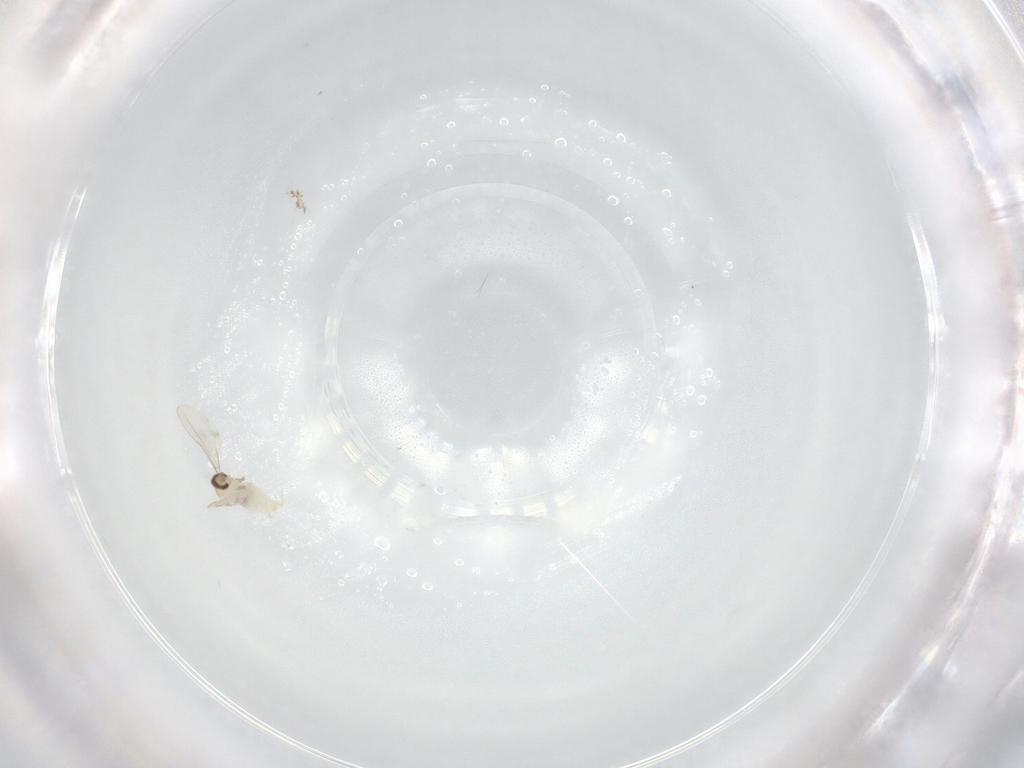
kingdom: Animalia
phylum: Arthropoda
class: Insecta
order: Diptera
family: Cecidomyiidae
